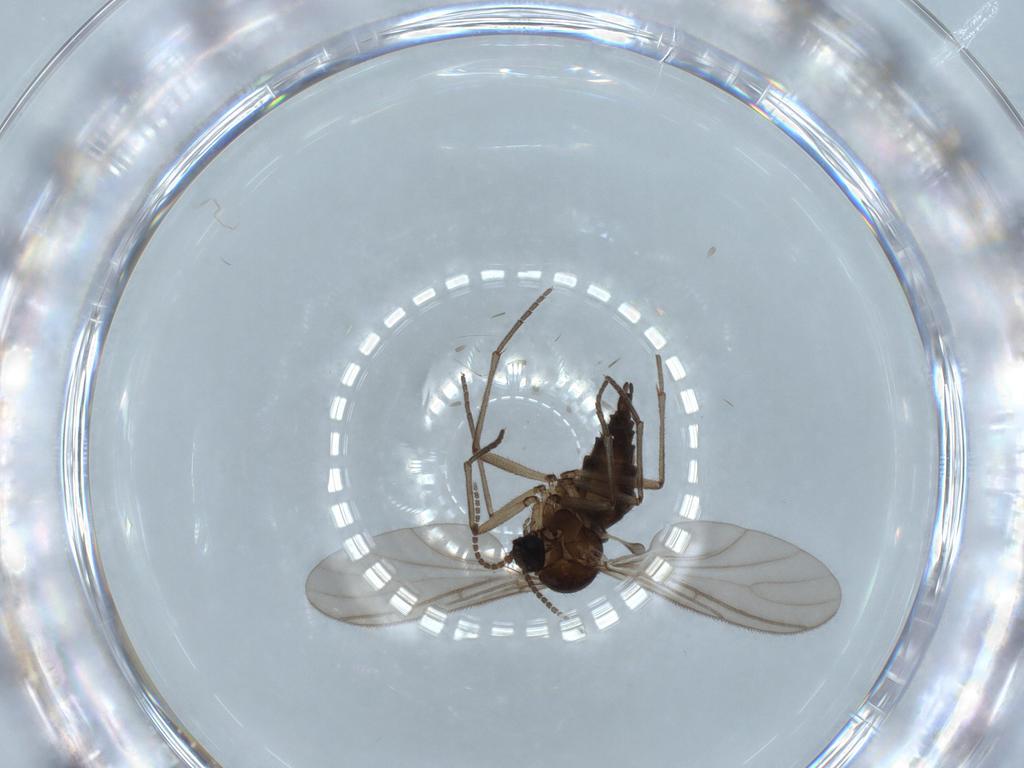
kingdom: Animalia
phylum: Arthropoda
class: Insecta
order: Diptera
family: Sciaridae
